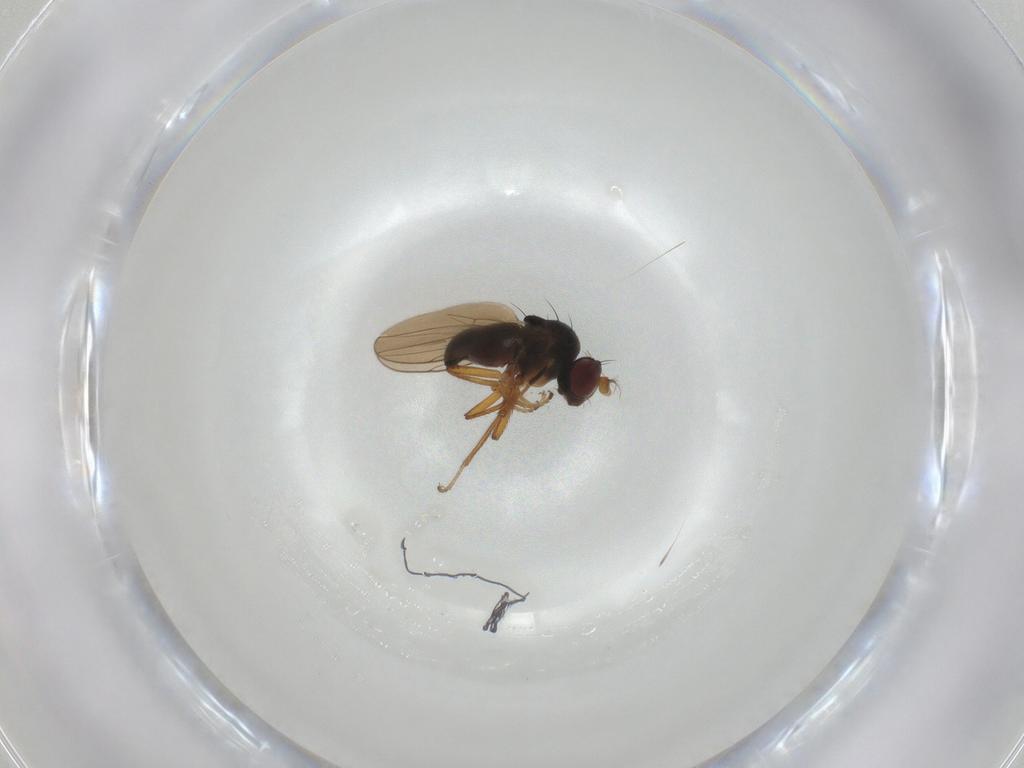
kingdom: Animalia
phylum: Arthropoda
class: Insecta
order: Diptera
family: Ephydridae
